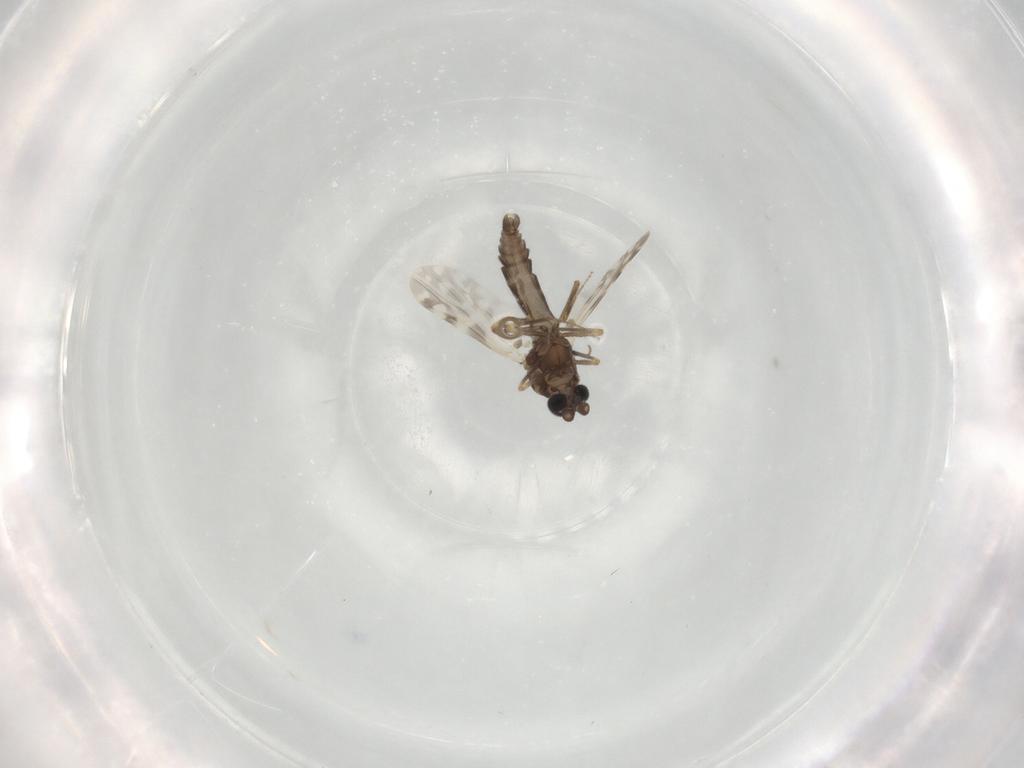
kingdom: Animalia
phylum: Arthropoda
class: Insecta
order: Diptera
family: Ceratopogonidae
